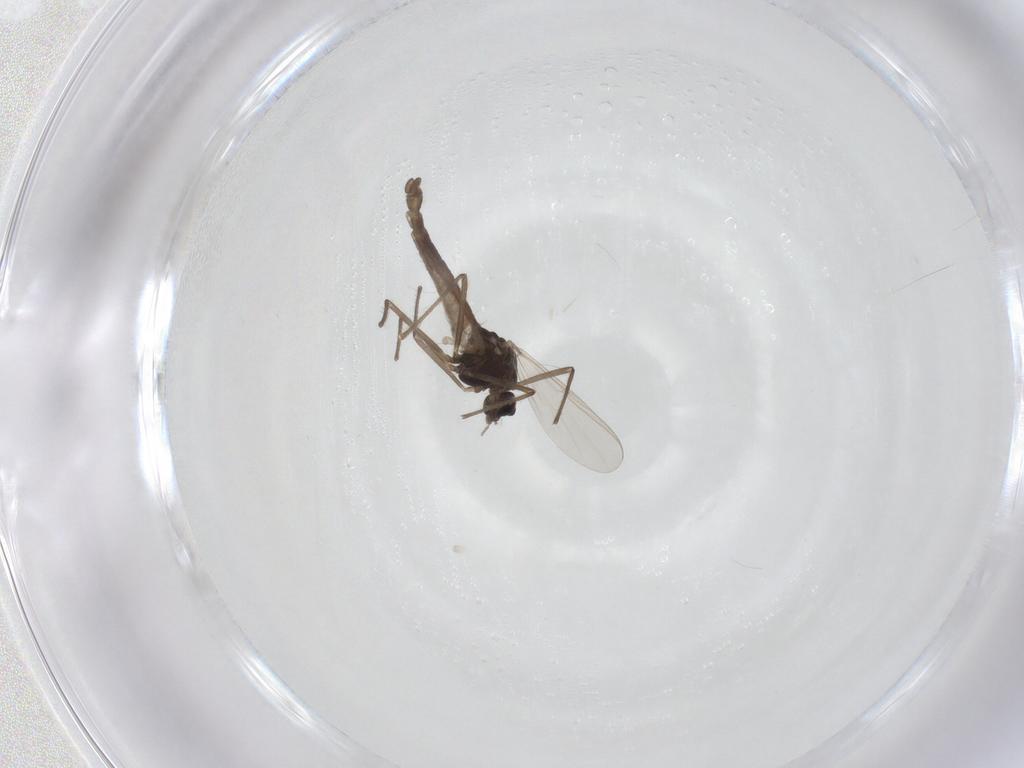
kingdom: Animalia
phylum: Arthropoda
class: Insecta
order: Diptera
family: Chironomidae
